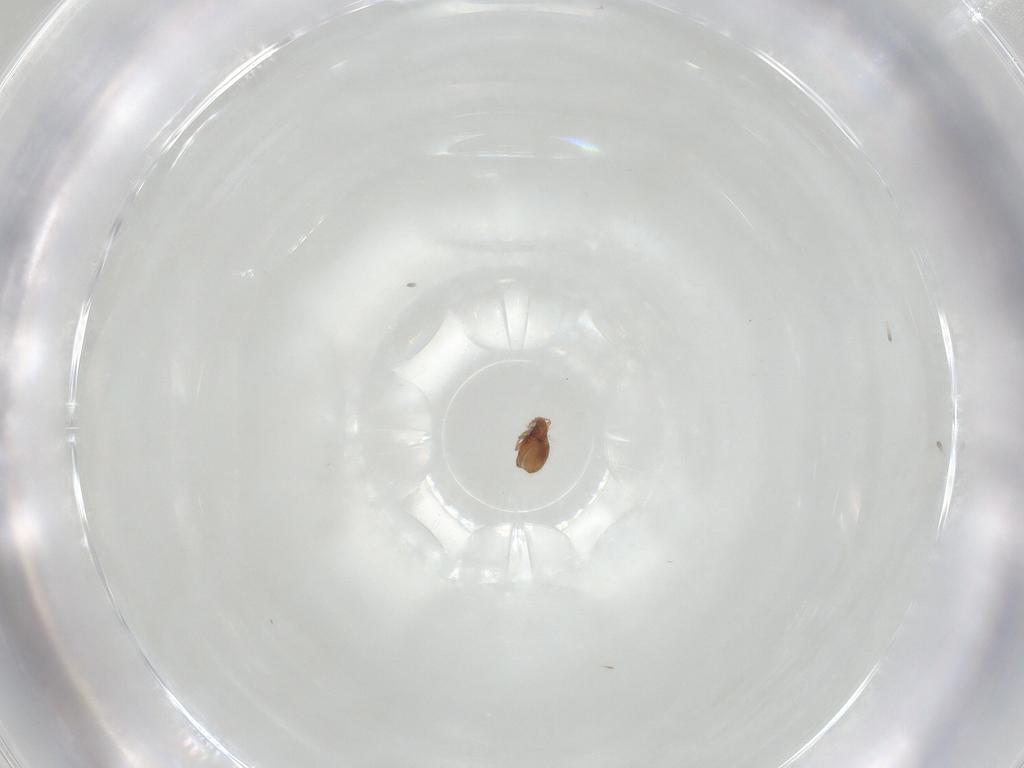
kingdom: Animalia
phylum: Arthropoda
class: Arachnida
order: Sarcoptiformes
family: Oribatulidae
